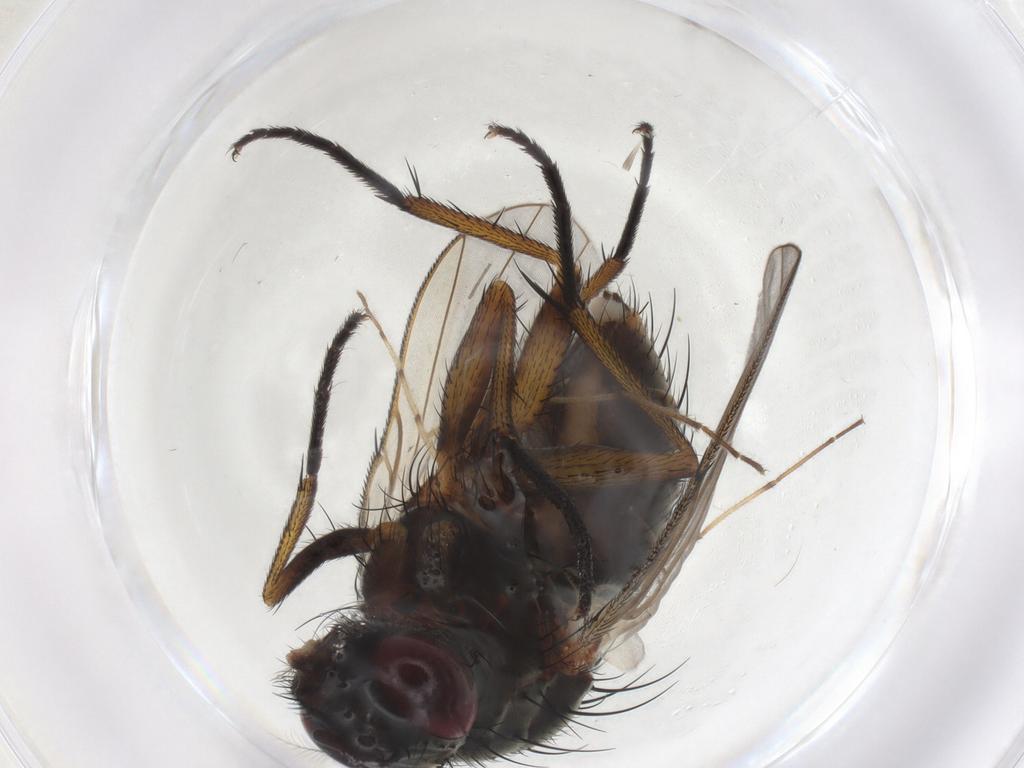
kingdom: Animalia
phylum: Arthropoda
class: Insecta
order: Diptera
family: Muscidae
